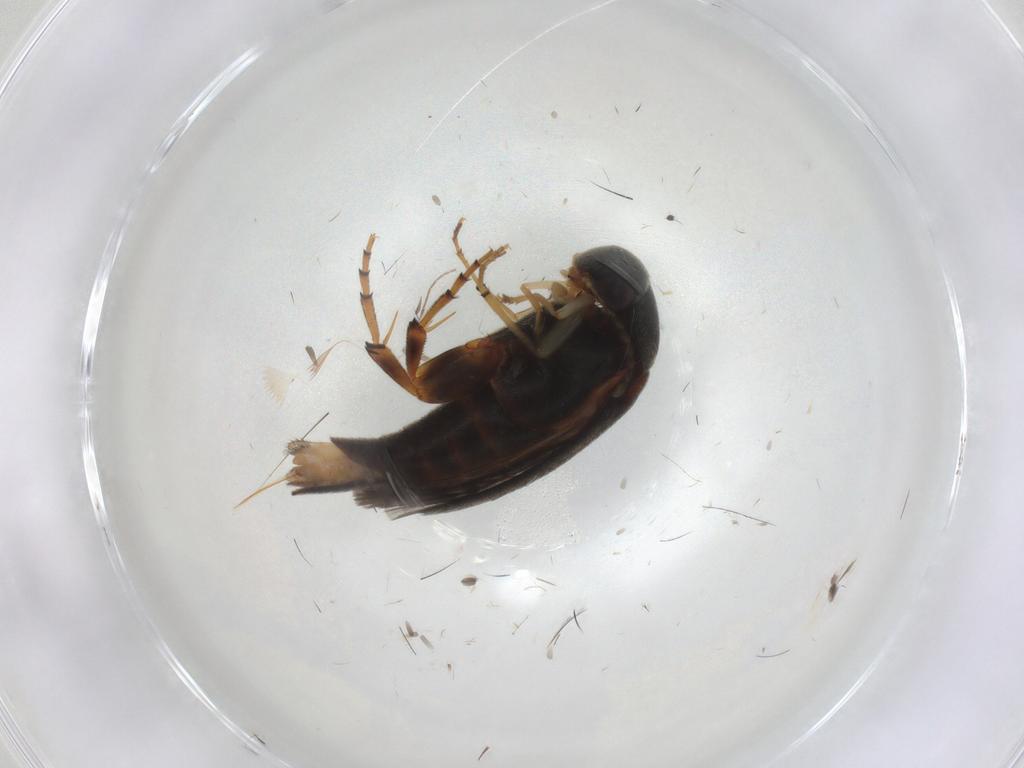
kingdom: Animalia
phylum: Arthropoda
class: Insecta
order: Coleoptera
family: Mordellidae
